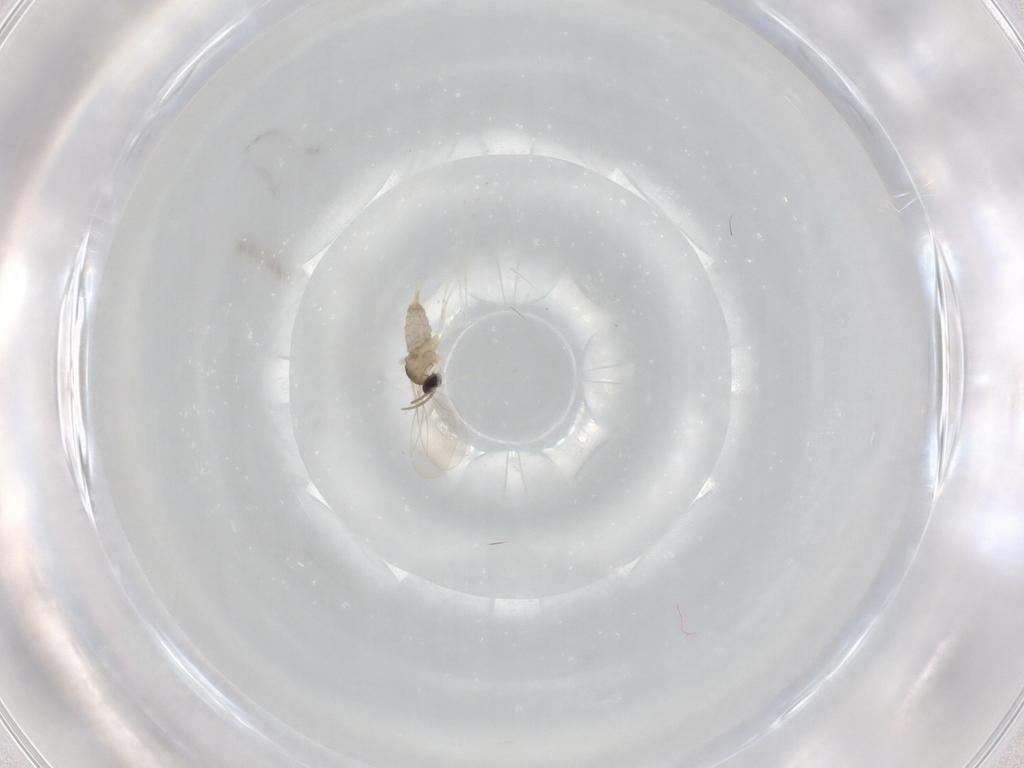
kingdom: Animalia
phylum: Arthropoda
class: Insecta
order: Diptera
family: Cecidomyiidae
